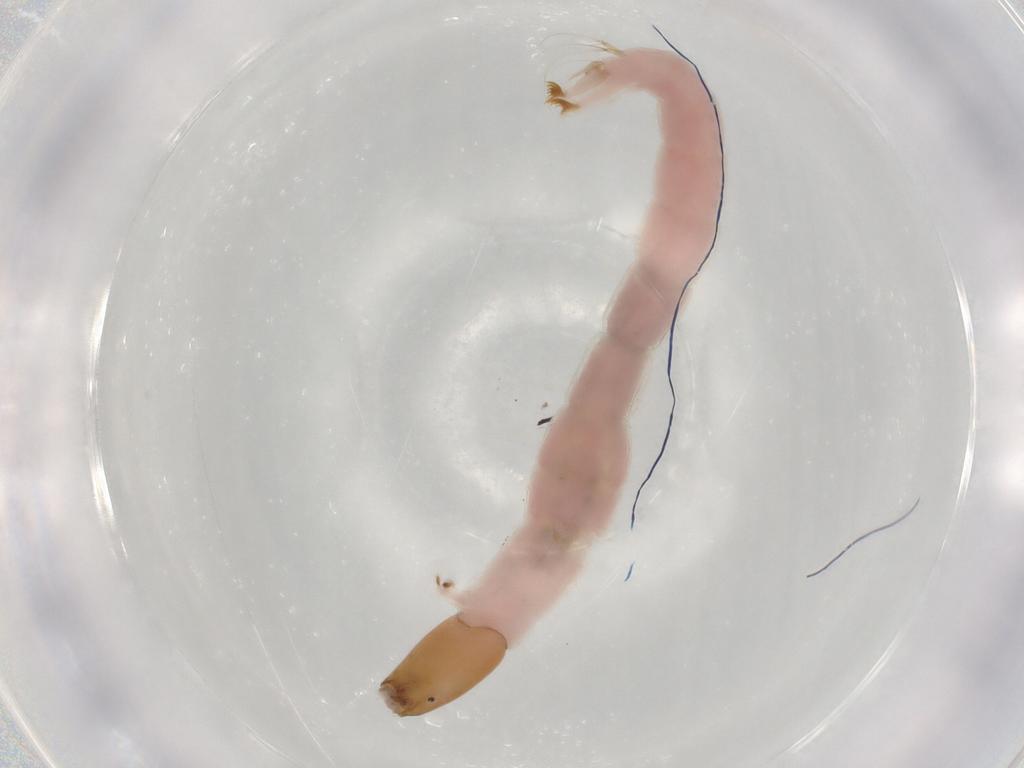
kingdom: Animalia
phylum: Arthropoda
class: Insecta
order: Diptera
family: Chironomidae
